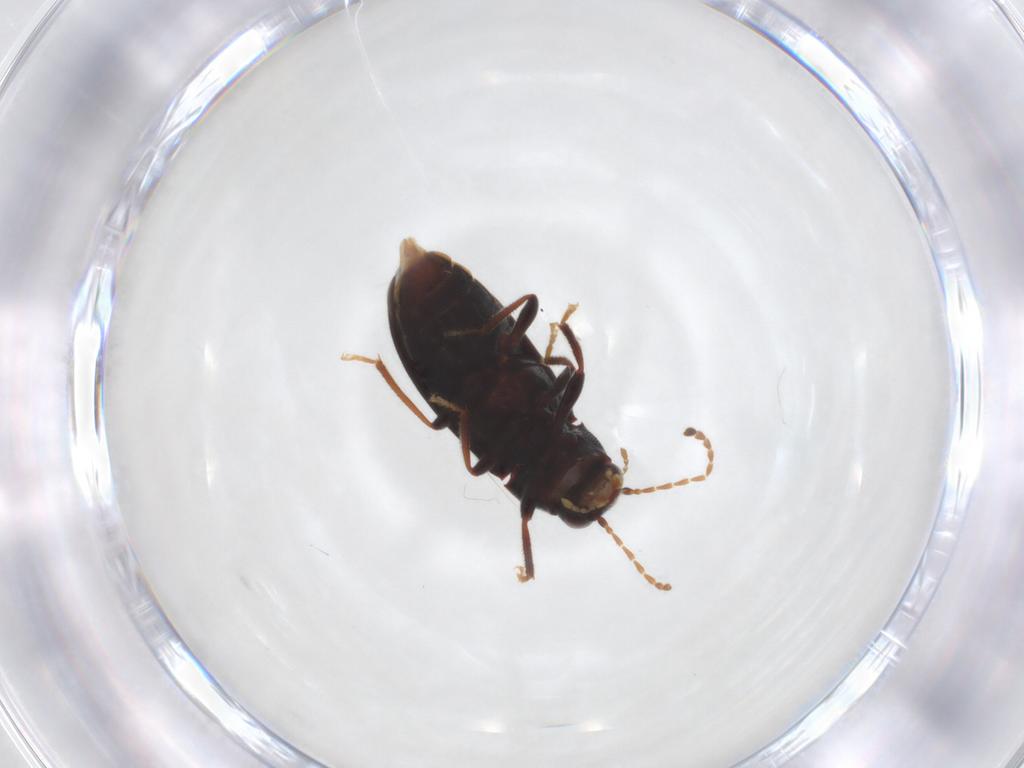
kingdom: Animalia
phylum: Arthropoda
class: Insecta
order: Coleoptera
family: Ptilodactylidae
